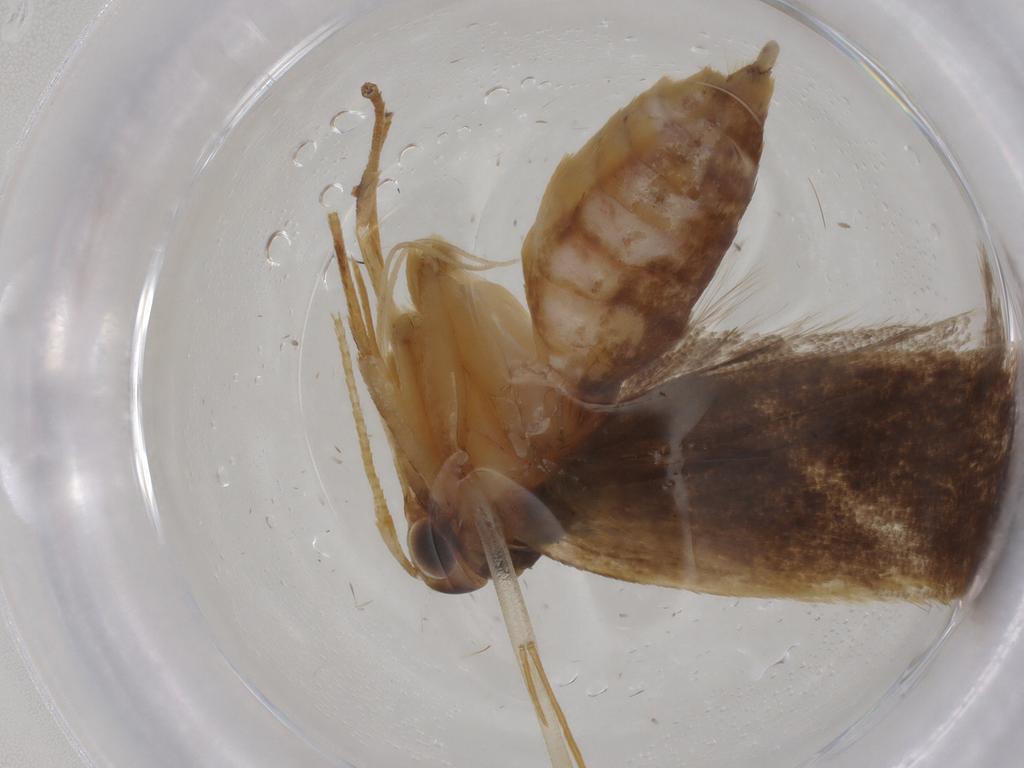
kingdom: Animalia
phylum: Arthropoda
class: Insecta
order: Lepidoptera
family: Lecithoceridae
